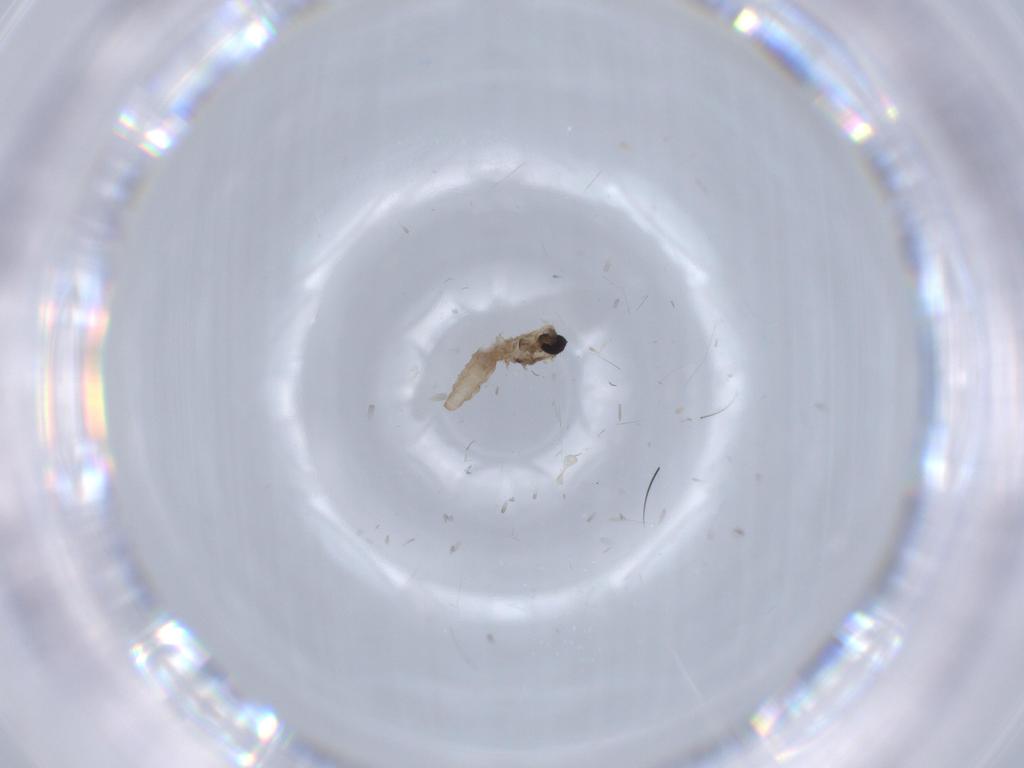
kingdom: Animalia
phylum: Arthropoda
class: Insecta
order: Diptera
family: Cecidomyiidae
